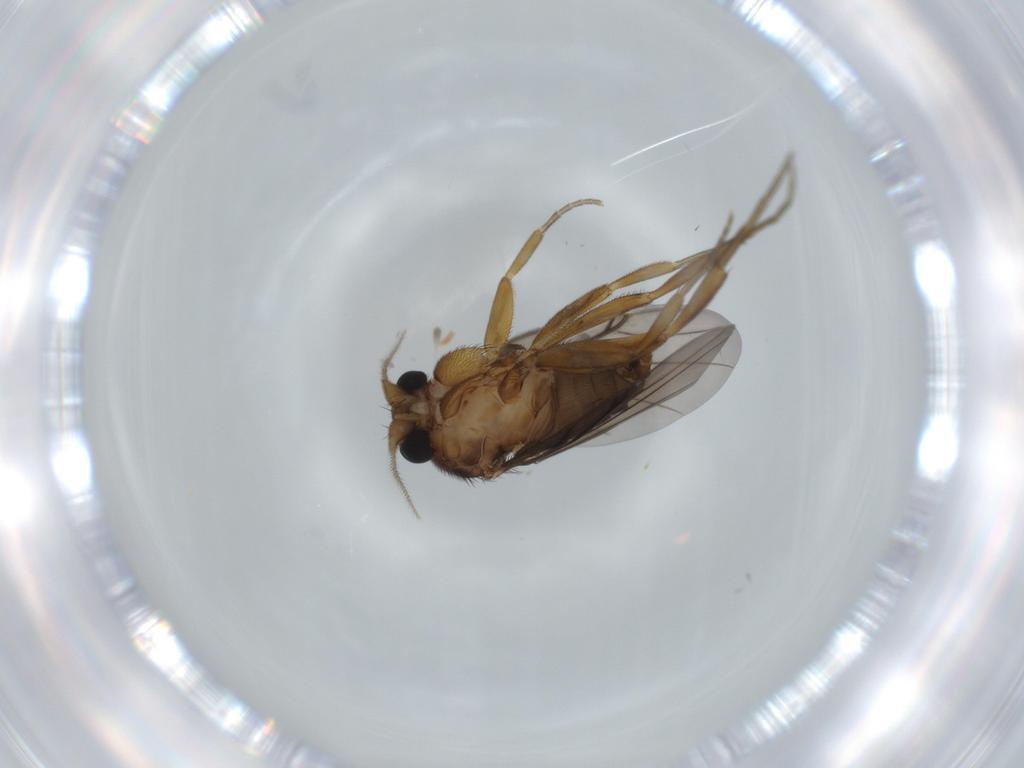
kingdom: Animalia
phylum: Arthropoda
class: Insecta
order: Diptera
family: Phoridae
